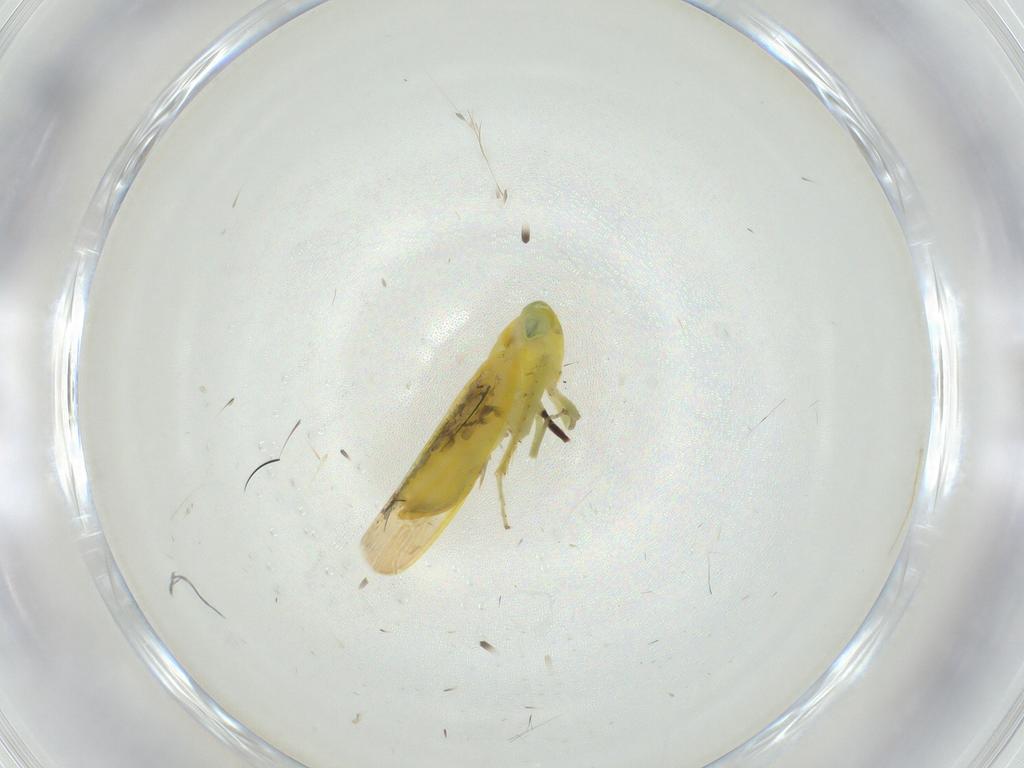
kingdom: Animalia
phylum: Arthropoda
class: Insecta
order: Hemiptera
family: Cicadellidae
